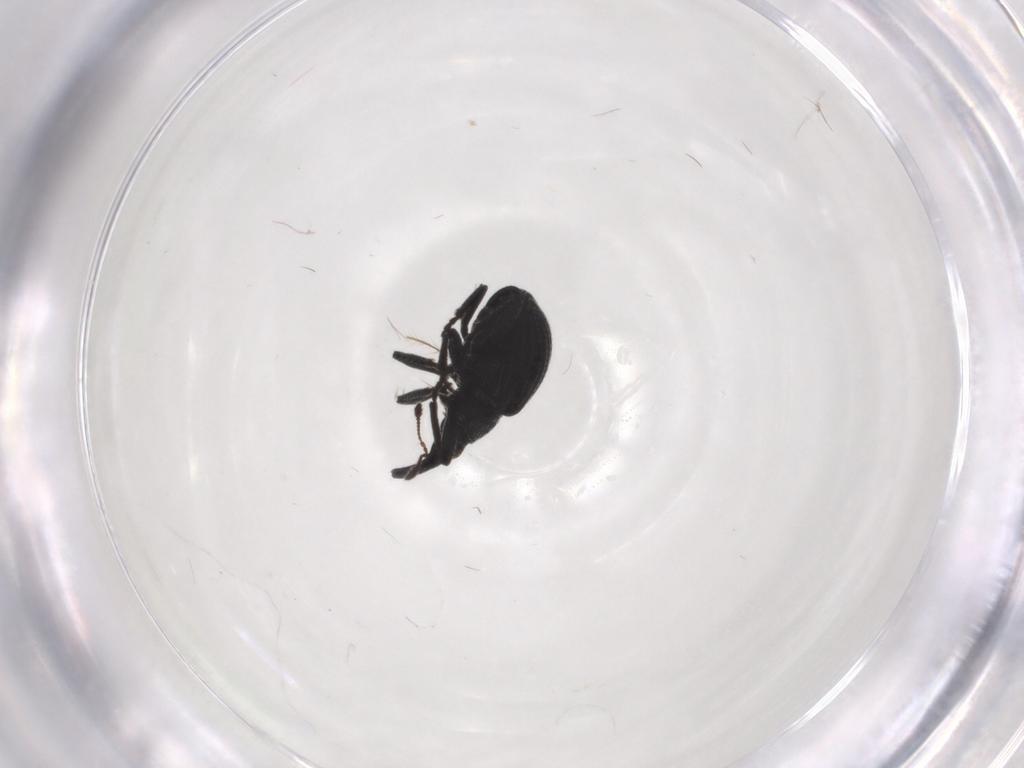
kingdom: Animalia
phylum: Arthropoda
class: Insecta
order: Coleoptera
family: Brentidae
